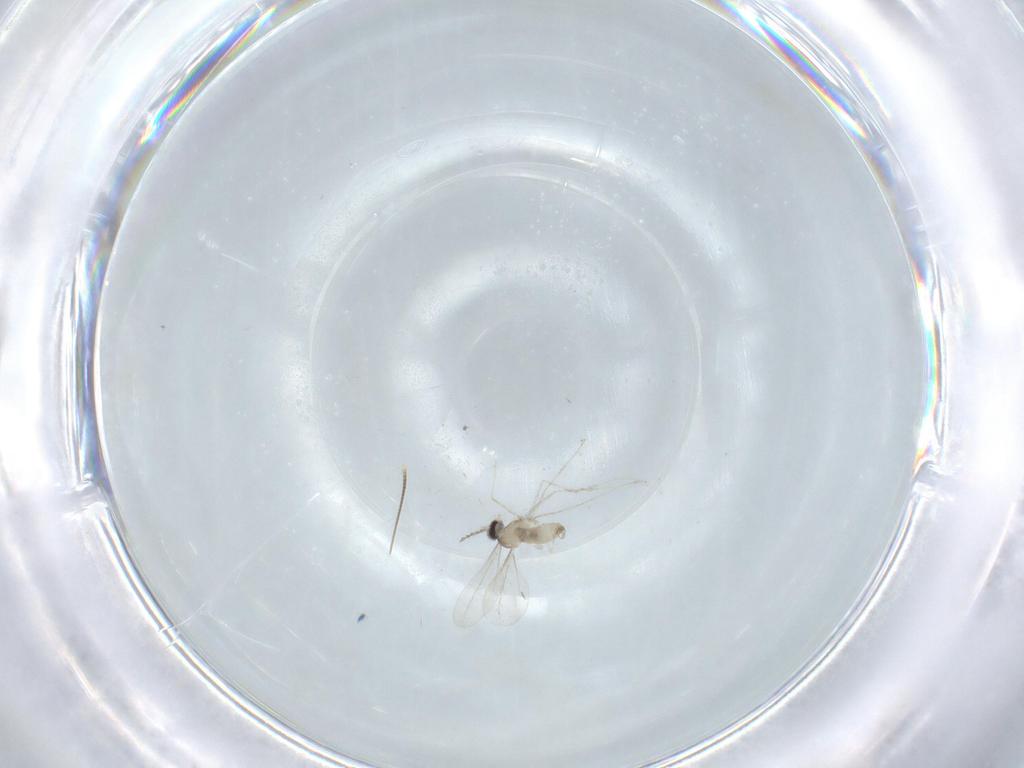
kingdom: Animalia
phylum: Arthropoda
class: Insecta
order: Diptera
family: Cecidomyiidae
